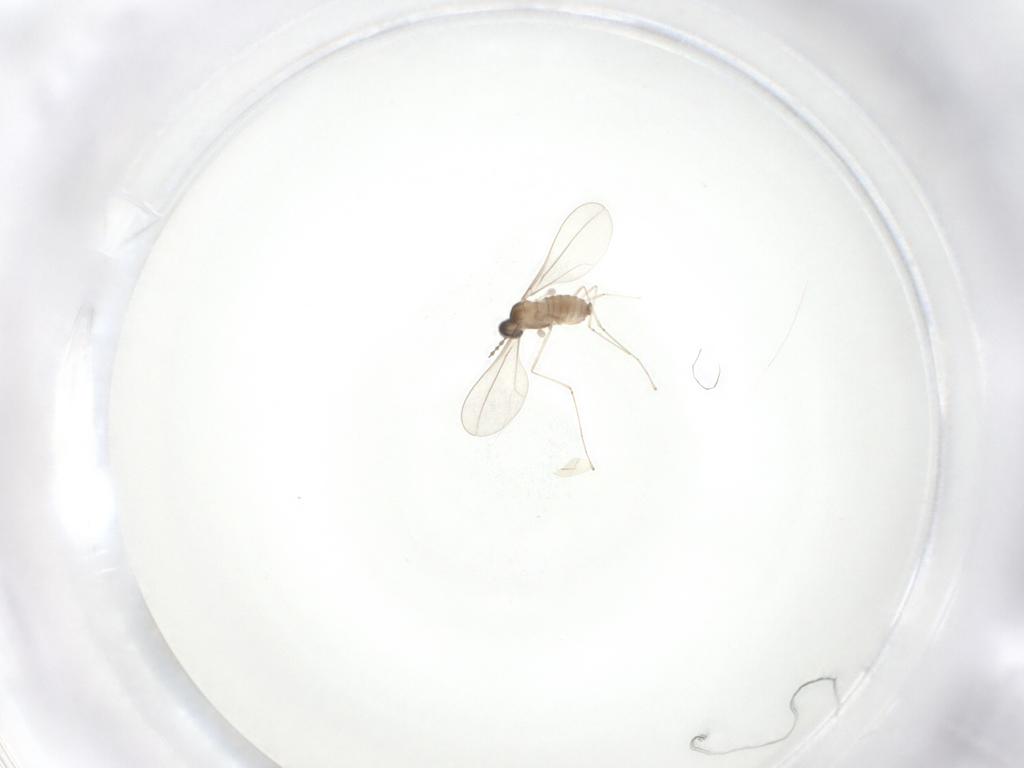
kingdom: Animalia
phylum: Arthropoda
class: Insecta
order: Diptera
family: Cecidomyiidae
